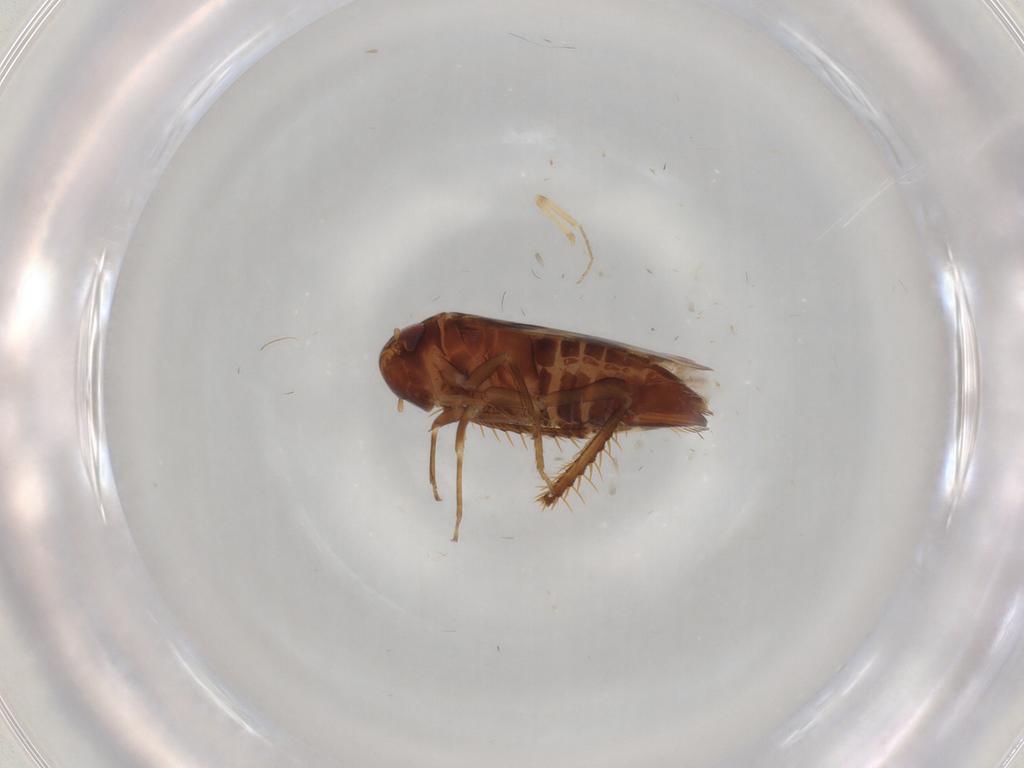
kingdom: Animalia
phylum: Arthropoda
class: Insecta
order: Hemiptera
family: Cicadellidae
